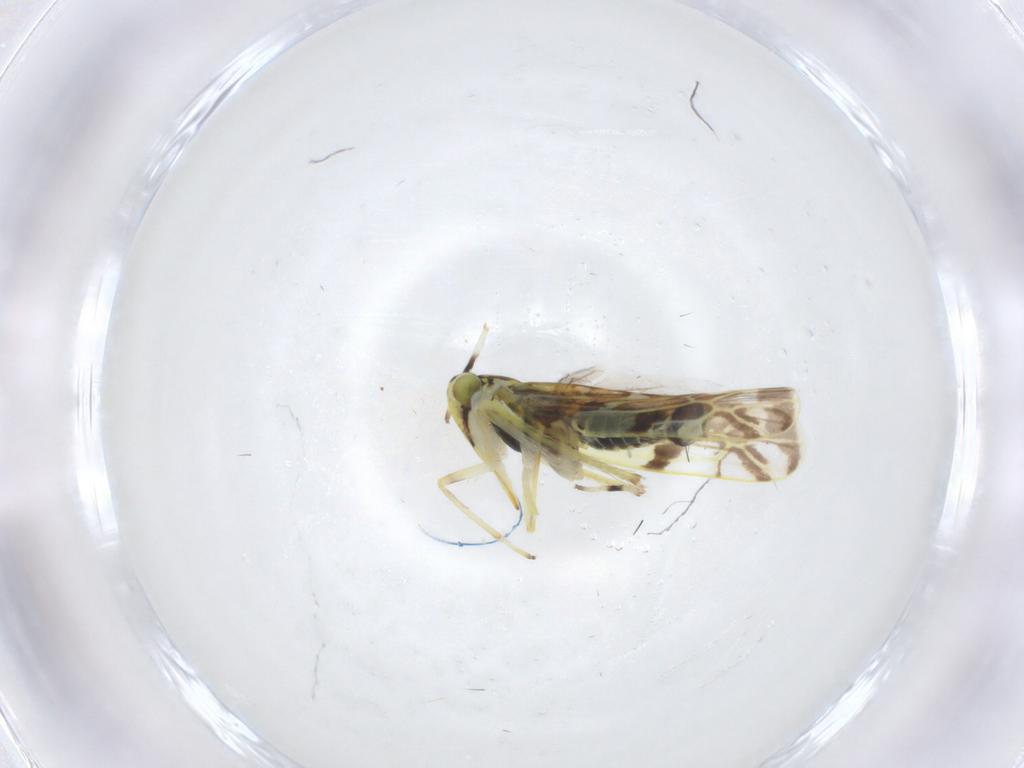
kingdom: Animalia
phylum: Arthropoda
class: Insecta
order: Hemiptera
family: Cicadellidae
